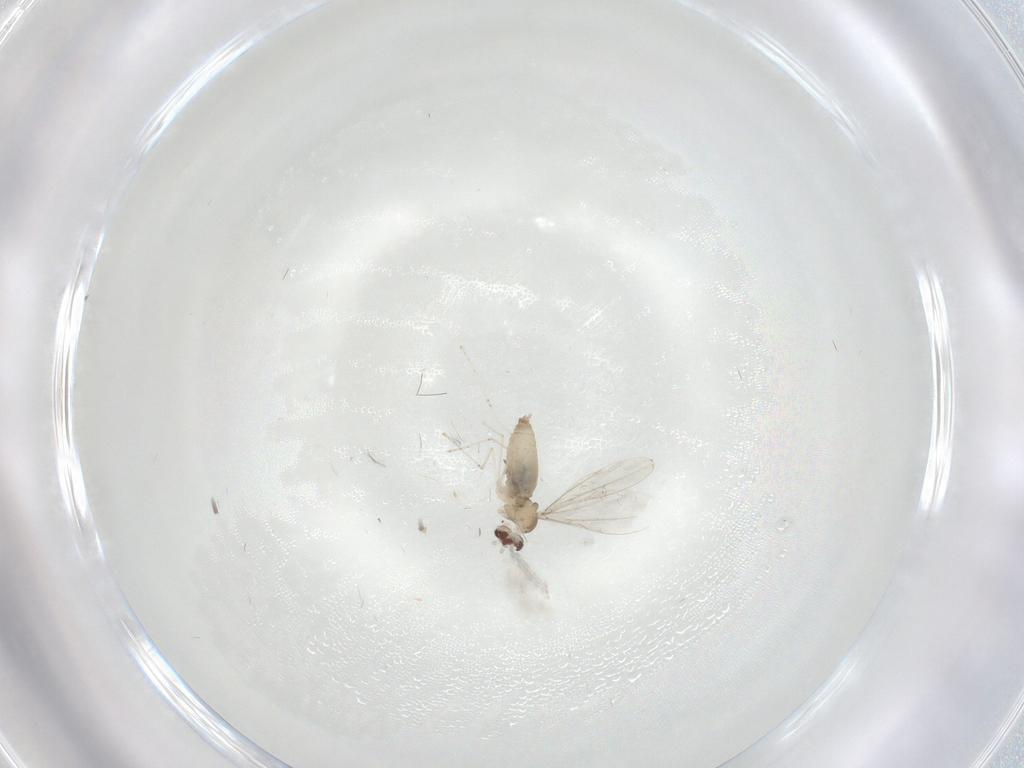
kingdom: Animalia
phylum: Arthropoda
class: Insecta
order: Diptera
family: Cecidomyiidae
